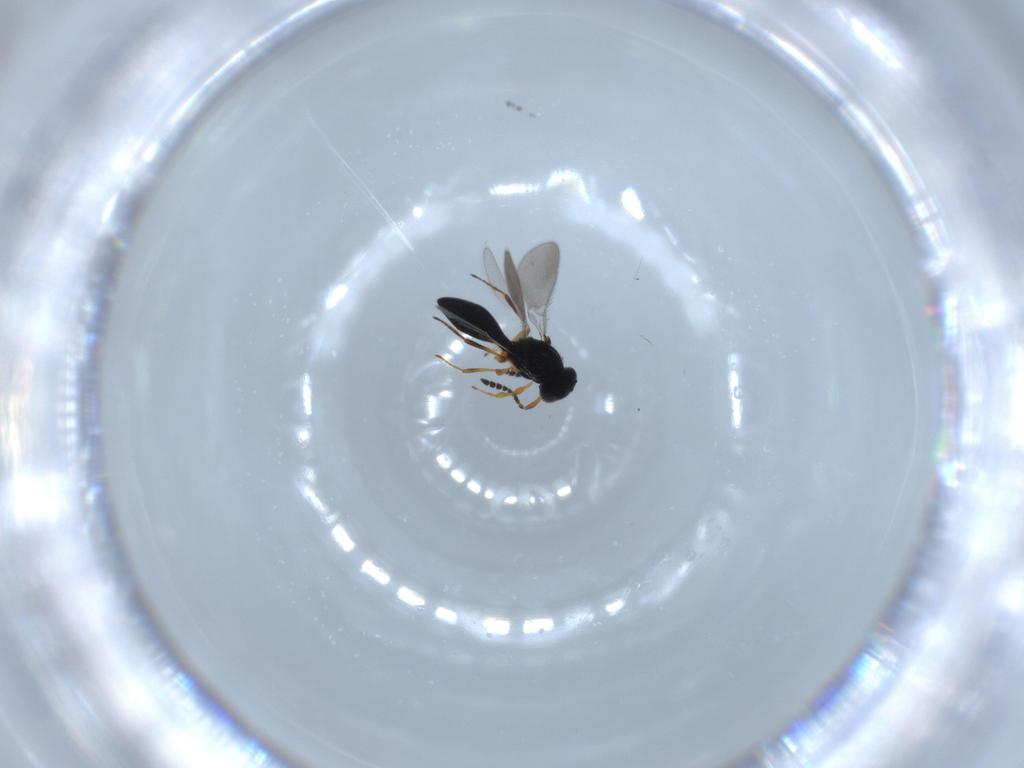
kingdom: Animalia
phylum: Arthropoda
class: Insecta
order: Hymenoptera
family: Platygastridae
